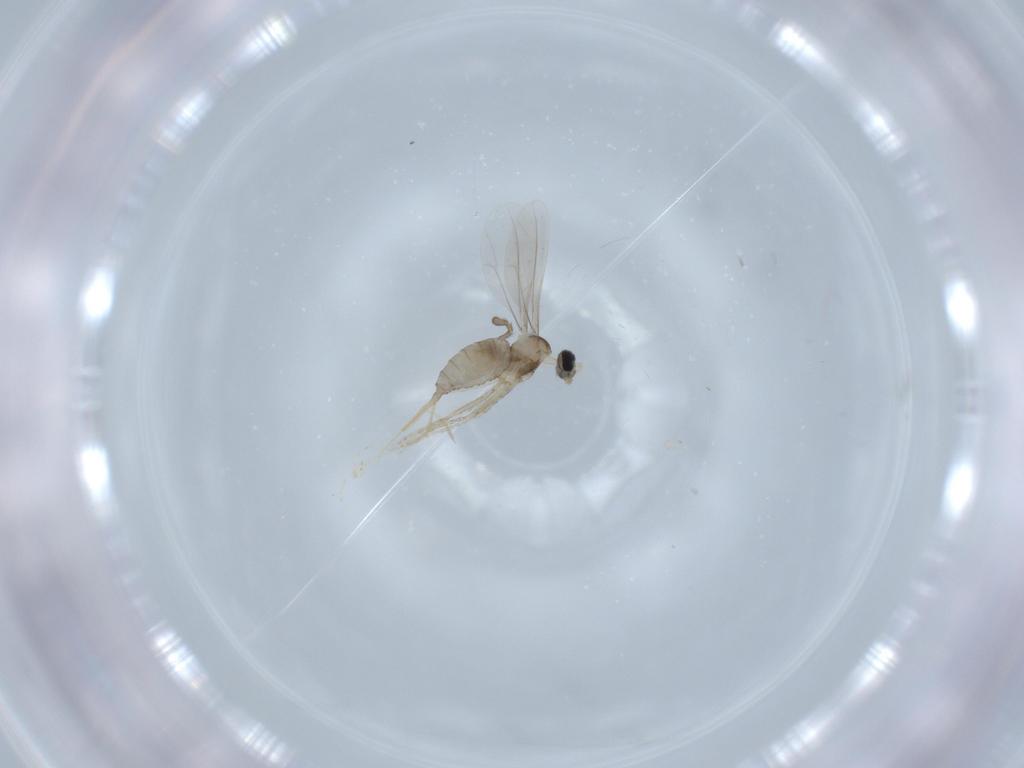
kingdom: Animalia
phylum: Arthropoda
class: Insecta
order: Diptera
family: Cecidomyiidae
